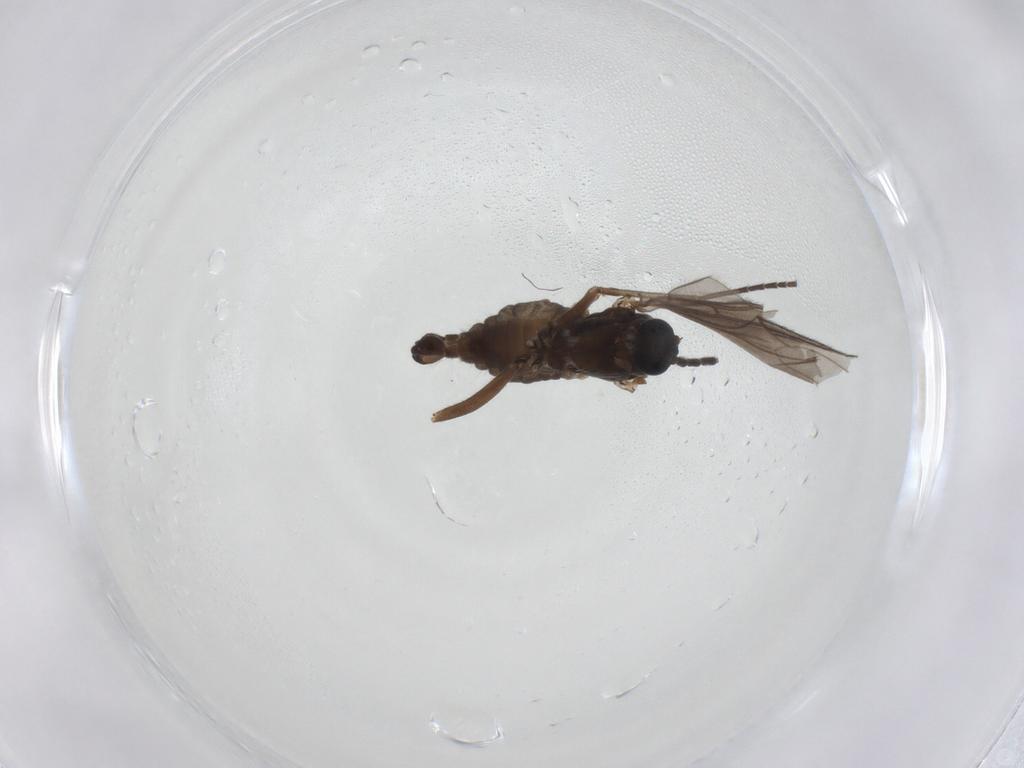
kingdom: Animalia
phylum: Arthropoda
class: Insecta
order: Diptera
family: Sciaridae
